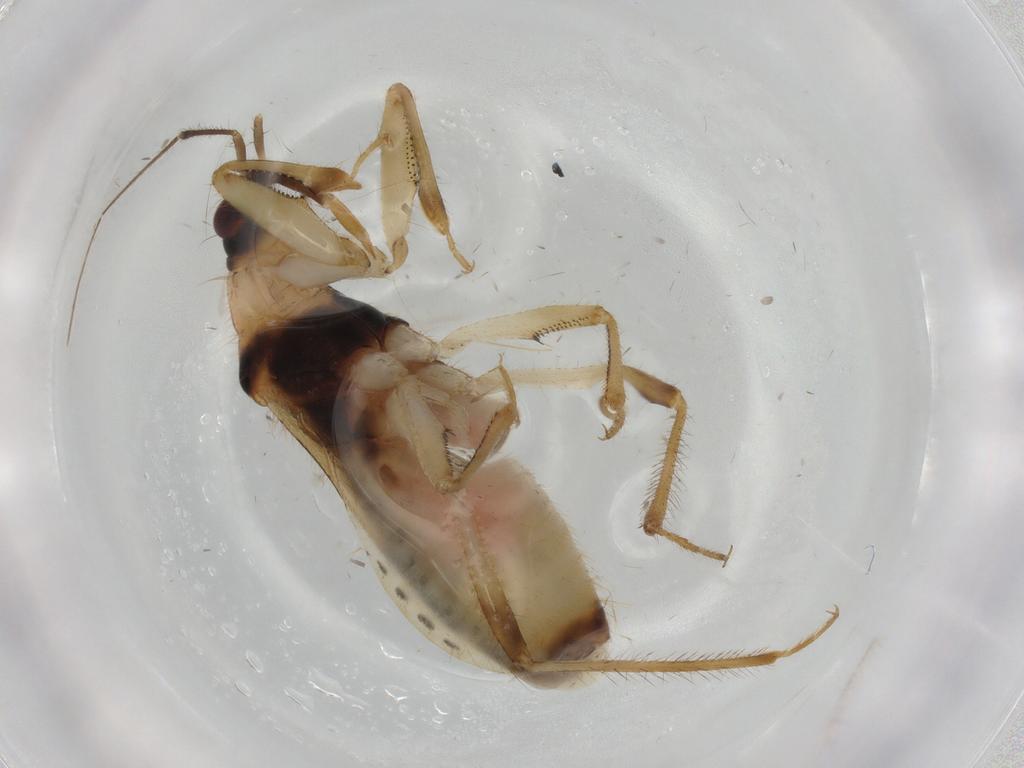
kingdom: Animalia
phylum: Arthropoda
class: Insecta
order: Hemiptera
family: Nabidae
